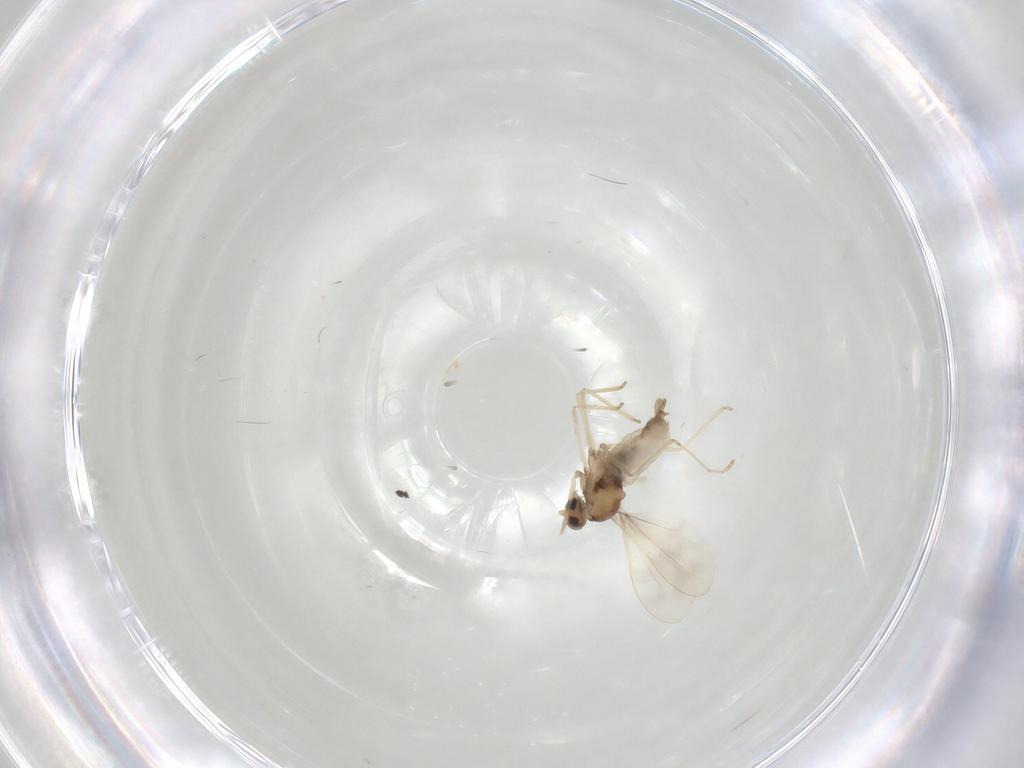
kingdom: Animalia
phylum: Arthropoda
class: Insecta
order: Diptera
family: Cecidomyiidae
